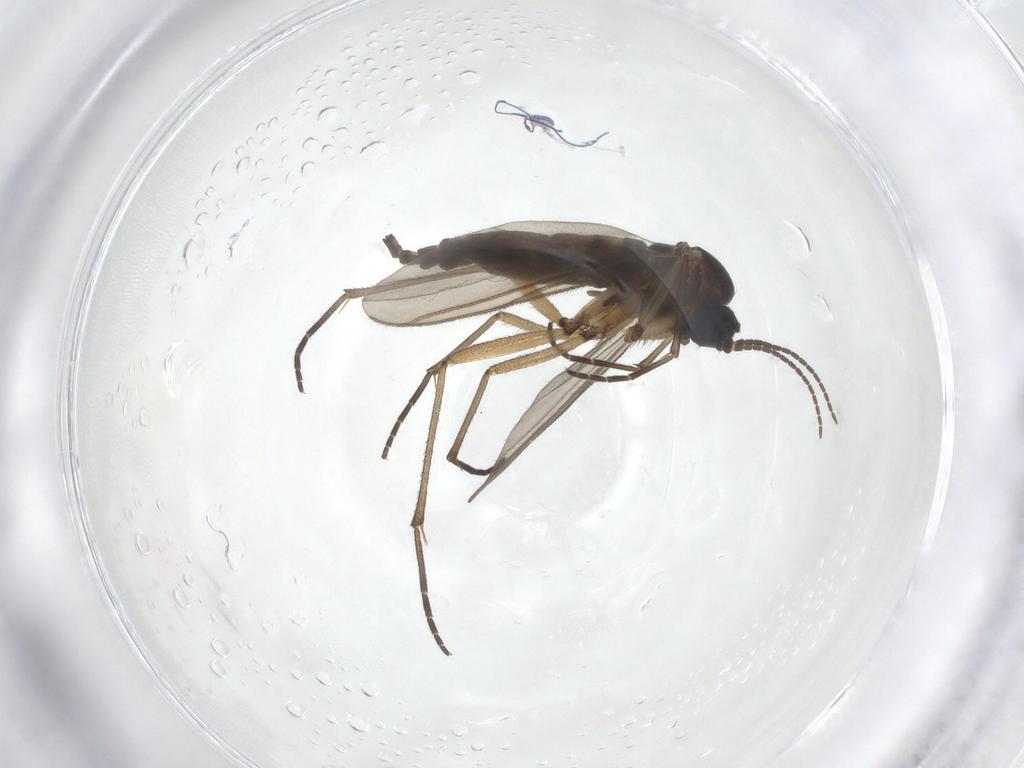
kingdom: Animalia
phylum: Arthropoda
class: Insecta
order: Diptera
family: Sciaridae
